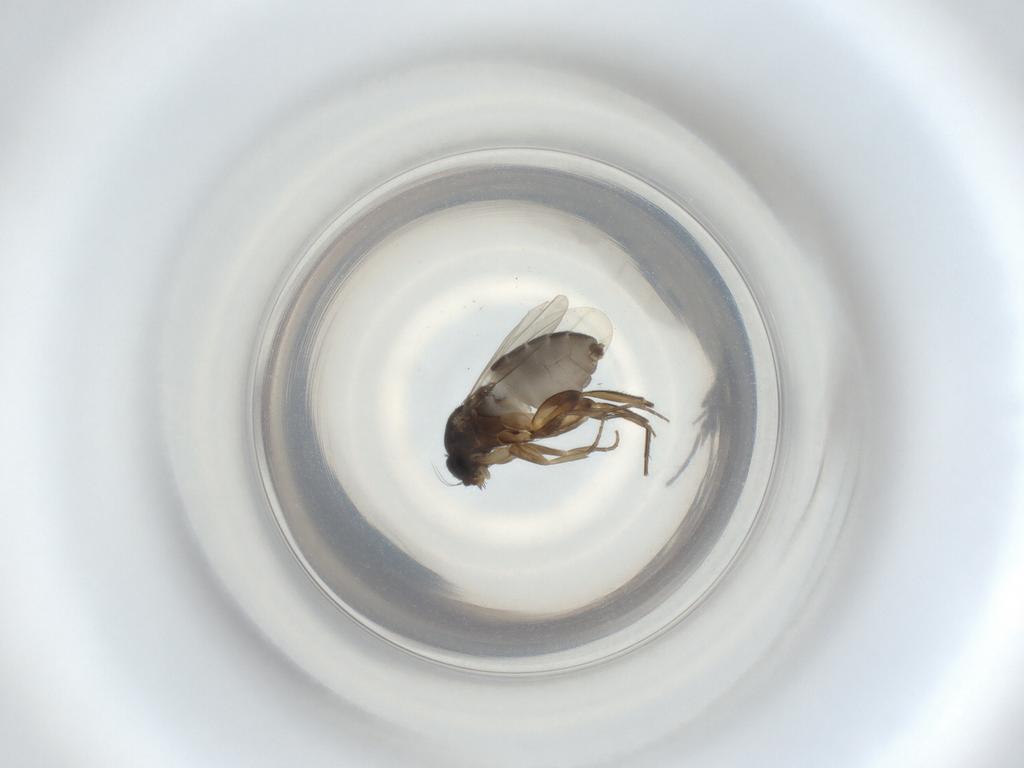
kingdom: Animalia
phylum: Arthropoda
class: Insecta
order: Diptera
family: Phoridae
